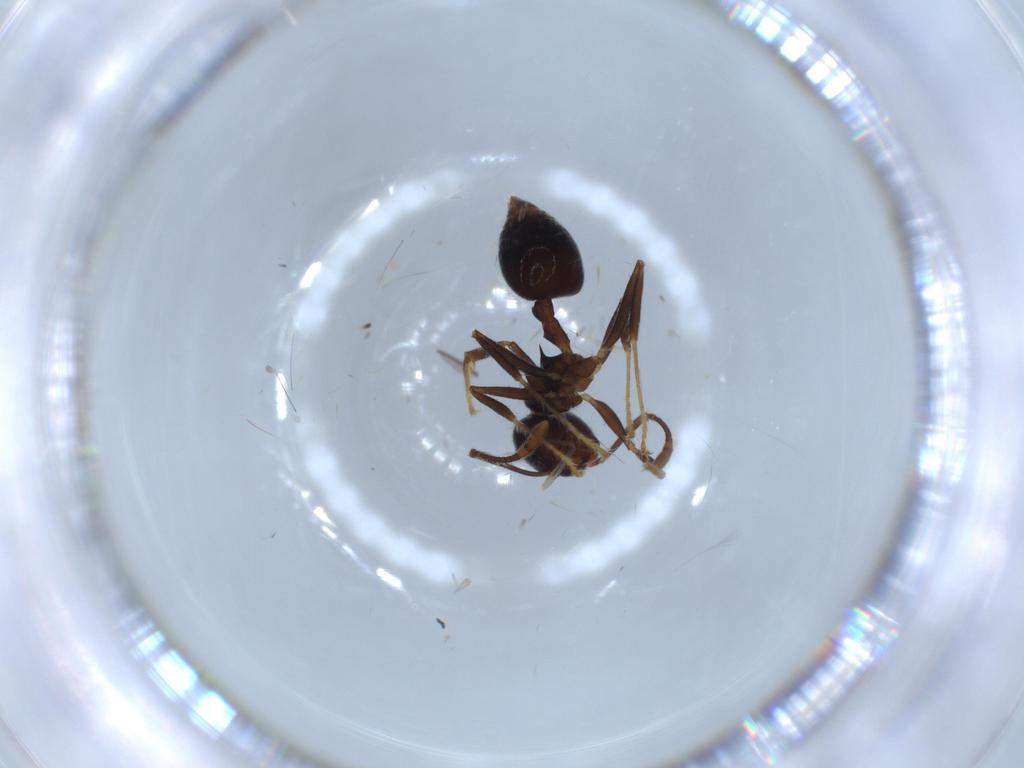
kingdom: Animalia
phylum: Arthropoda
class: Insecta
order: Hymenoptera
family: Formicidae
